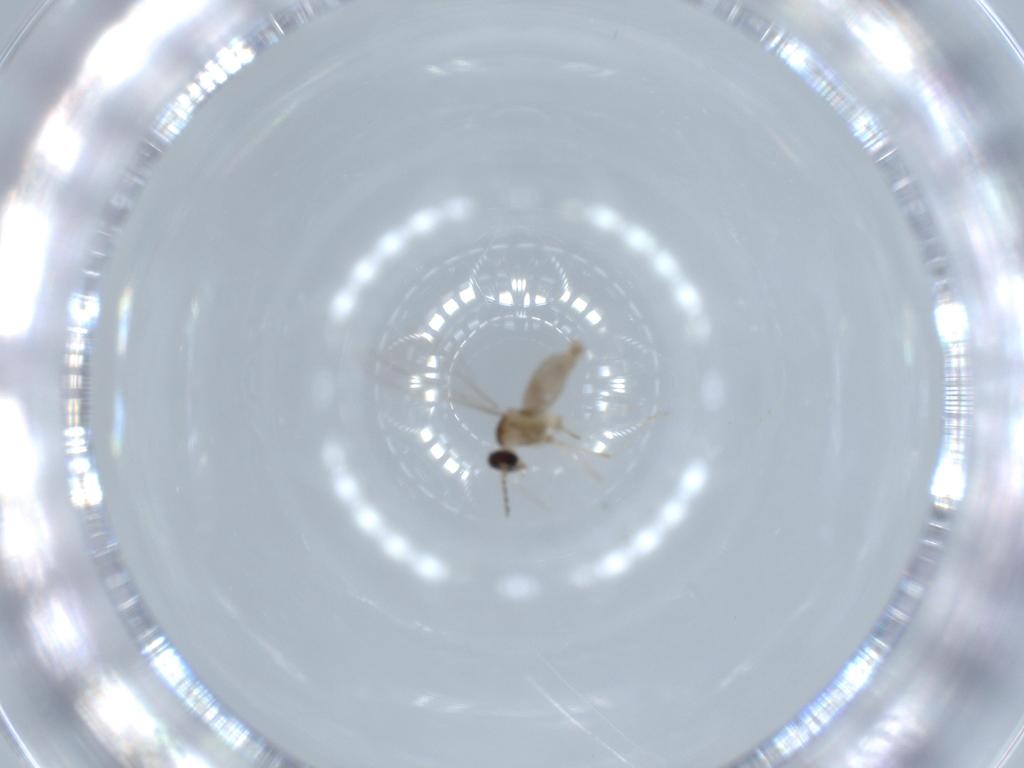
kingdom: Animalia
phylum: Arthropoda
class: Insecta
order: Diptera
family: Cecidomyiidae
